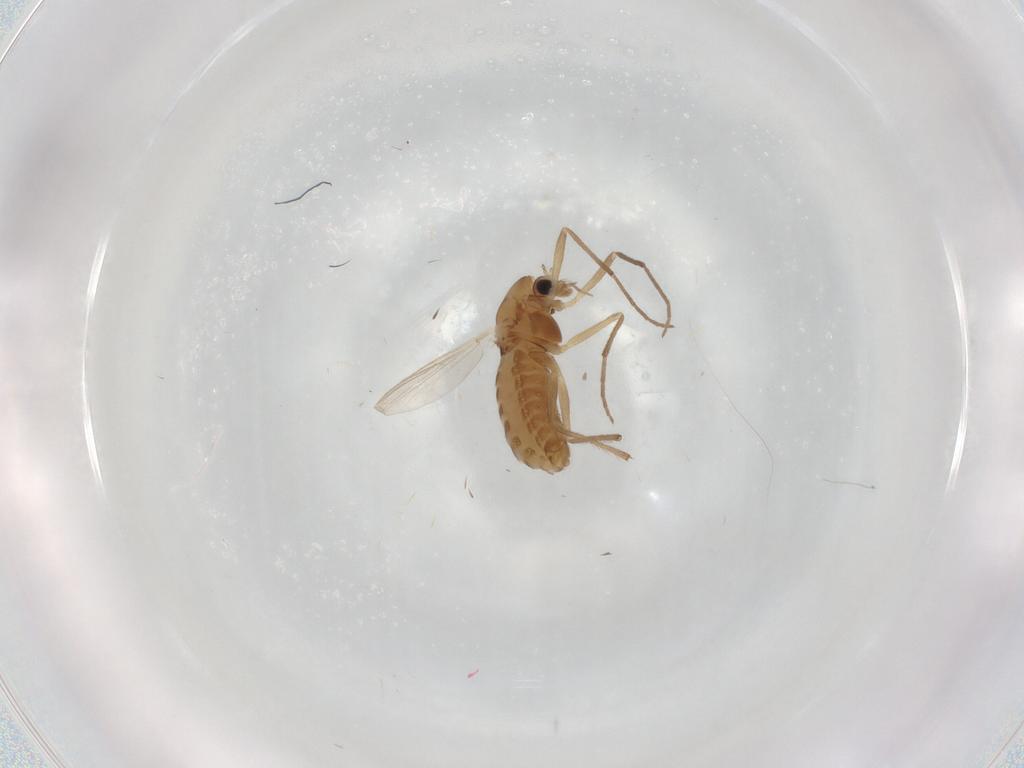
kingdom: Animalia
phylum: Arthropoda
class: Insecta
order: Diptera
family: Chironomidae
